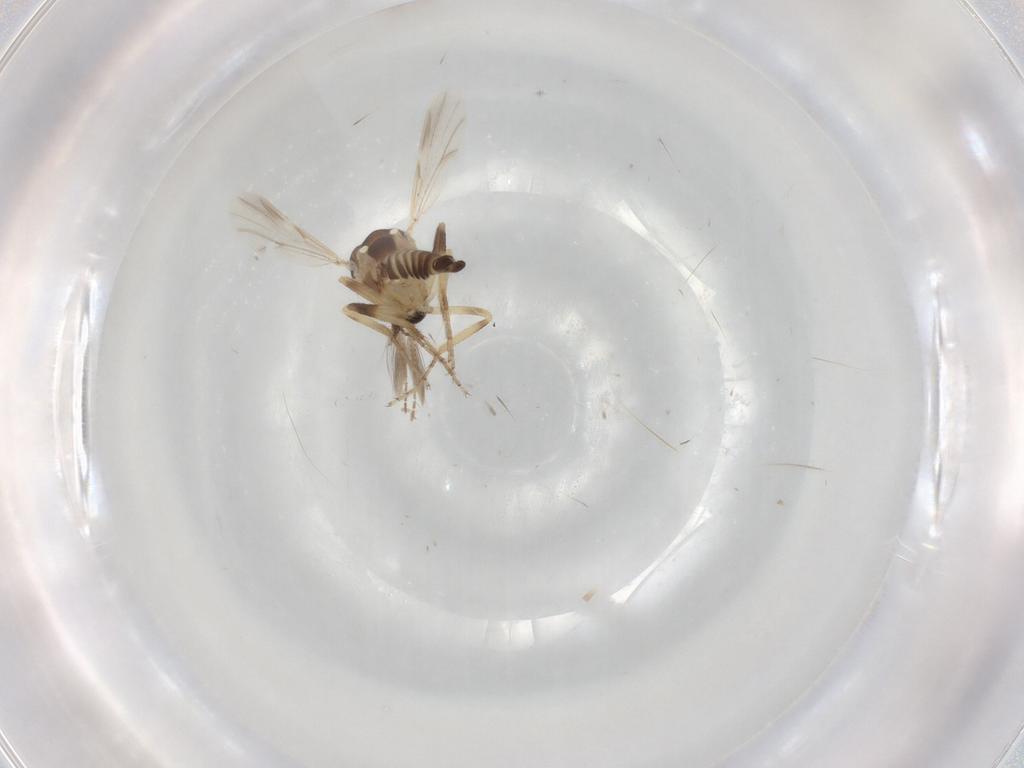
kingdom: Animalia
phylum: Arthropoda
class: Insecta
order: Diptera
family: Ceratopogonidae
